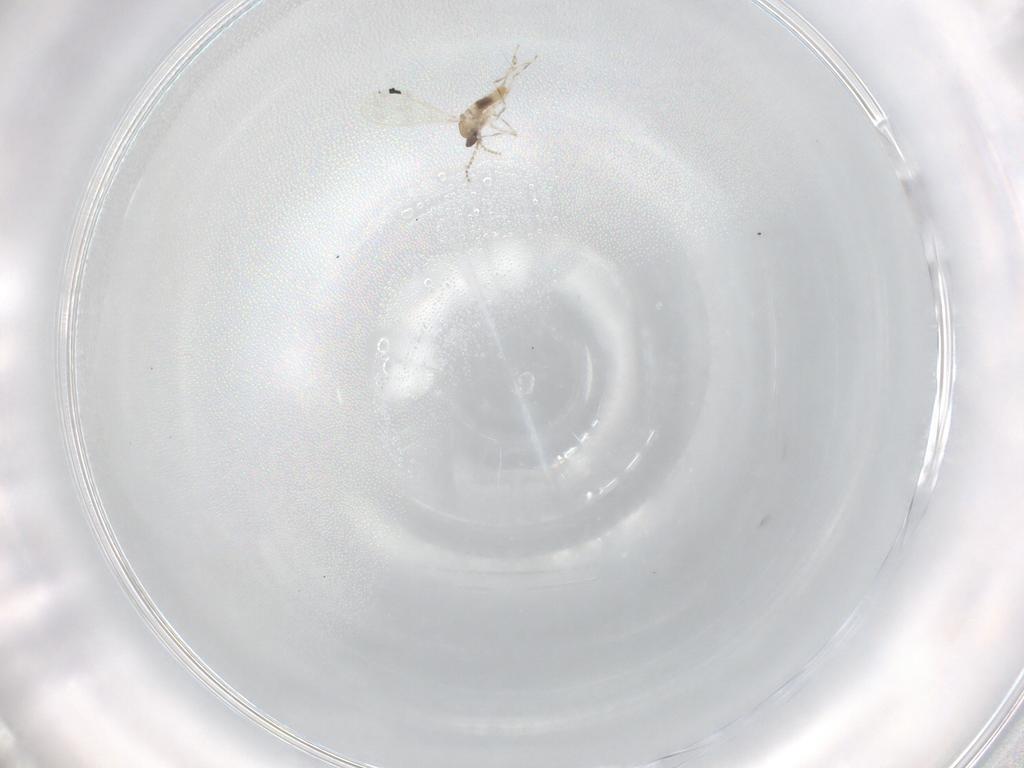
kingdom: Animalia
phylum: Arthropoda
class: Insecta
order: Diptera
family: Cecidomyiidae
